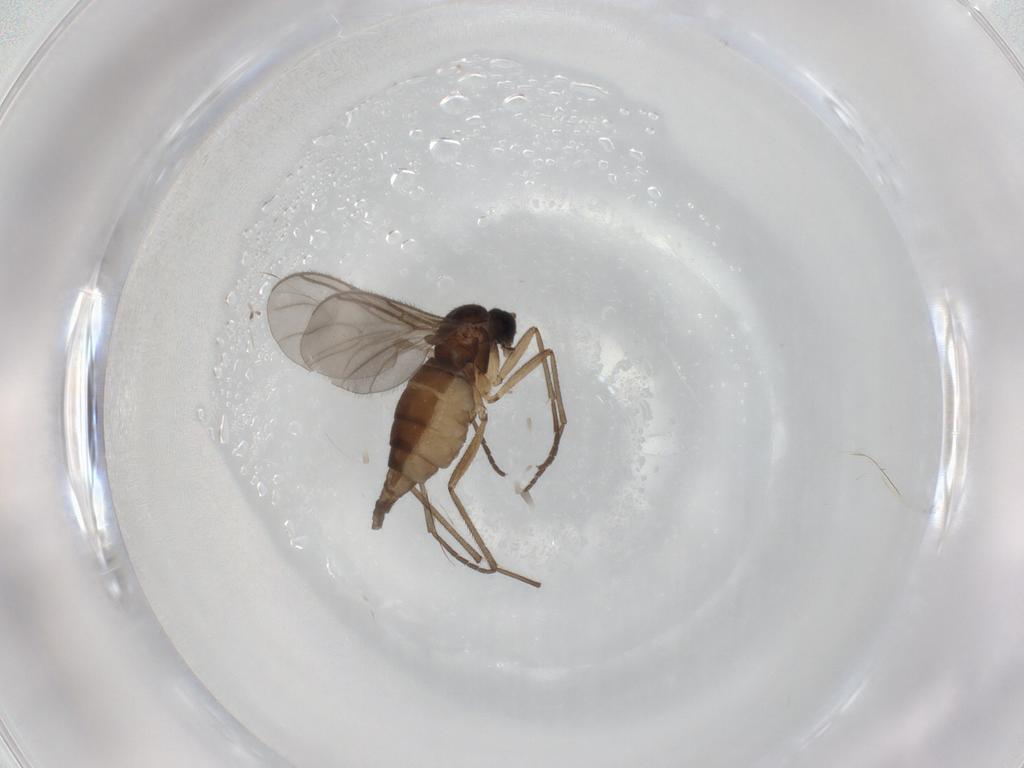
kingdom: Animalia
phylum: Arthropoda
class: Insecta
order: Diptera
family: Sciaridae
